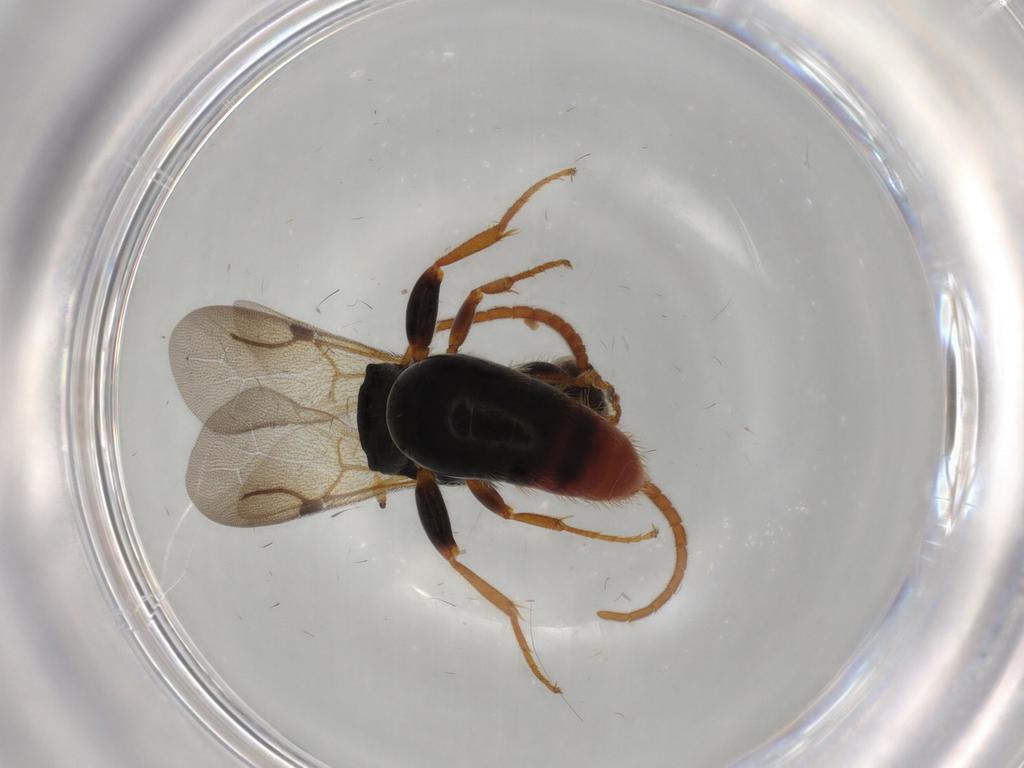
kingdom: Animalia
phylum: Arthropoda
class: Insecta
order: Hymenoptera
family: Bethylidae
